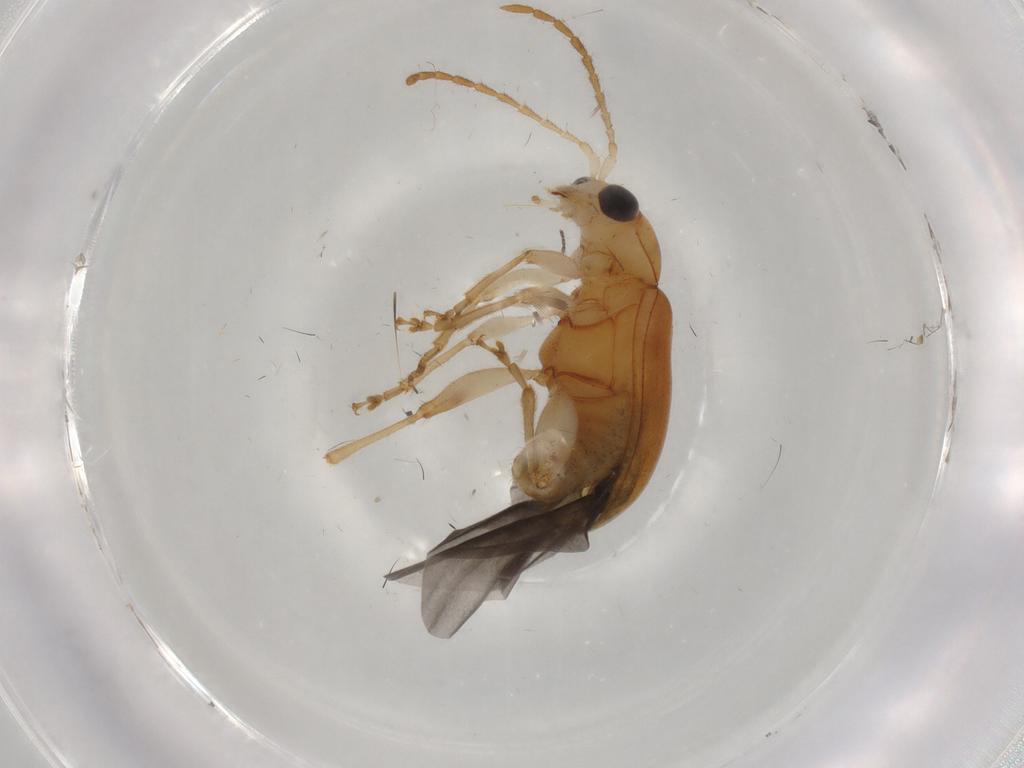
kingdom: Animalia
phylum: Arthropoda
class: Insecta
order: Coleoptera
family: Chrysomelidae
